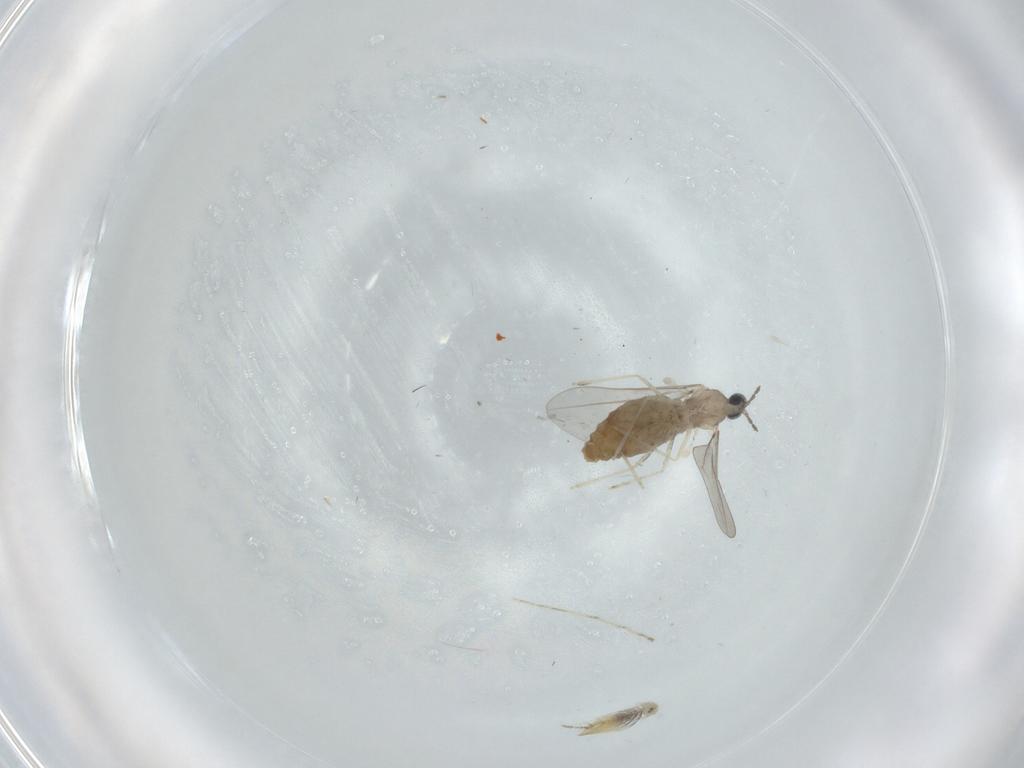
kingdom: Animalia
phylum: Arthropoda
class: Insecta
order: Diptera
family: Ceratopogonidae
